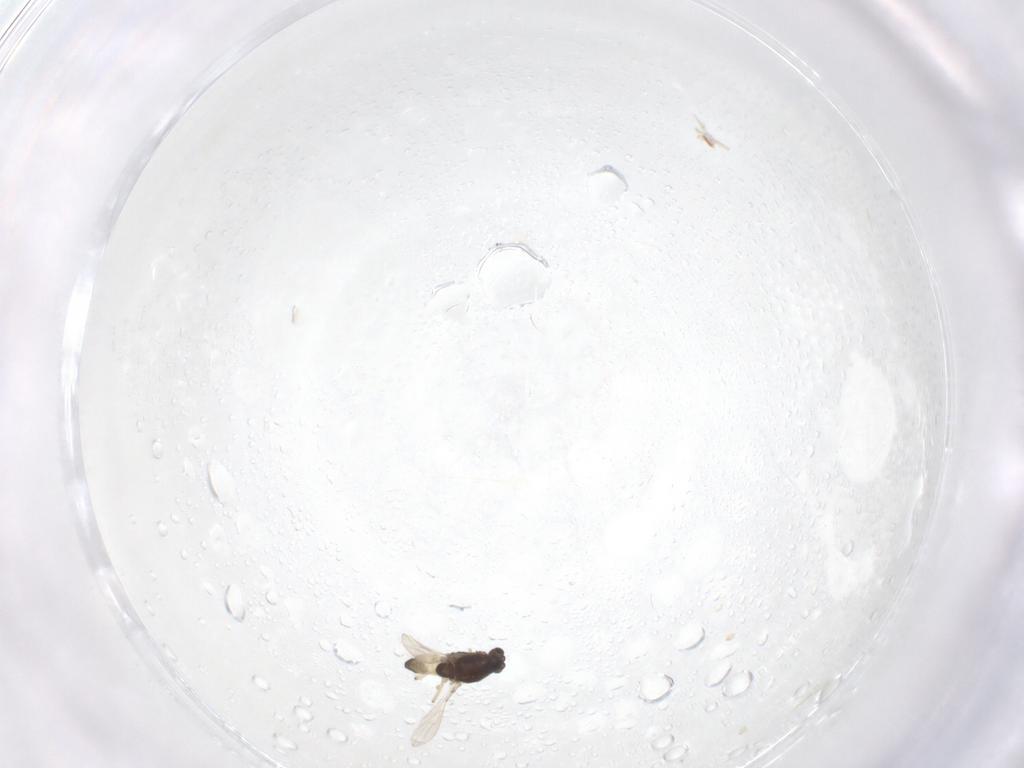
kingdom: Animalia
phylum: Arthropoda
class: Insecta
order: Diptera
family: Chironomidae
